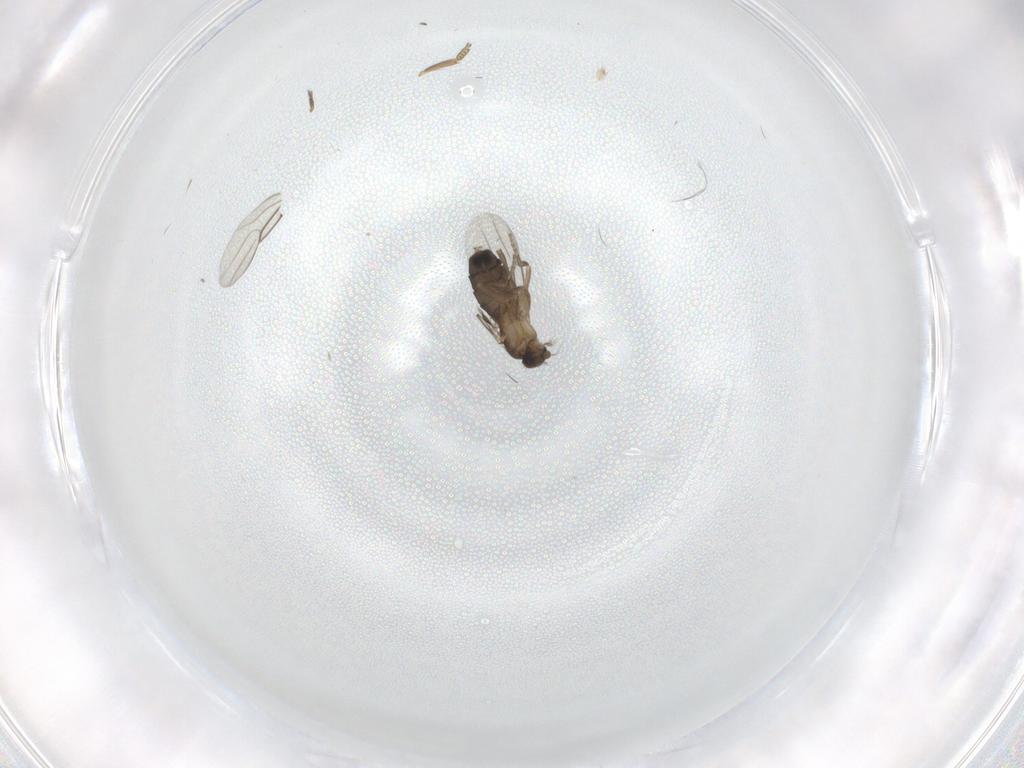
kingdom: Animalia
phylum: Arthropoda
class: Insecta
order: Diptera
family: Phoridae
